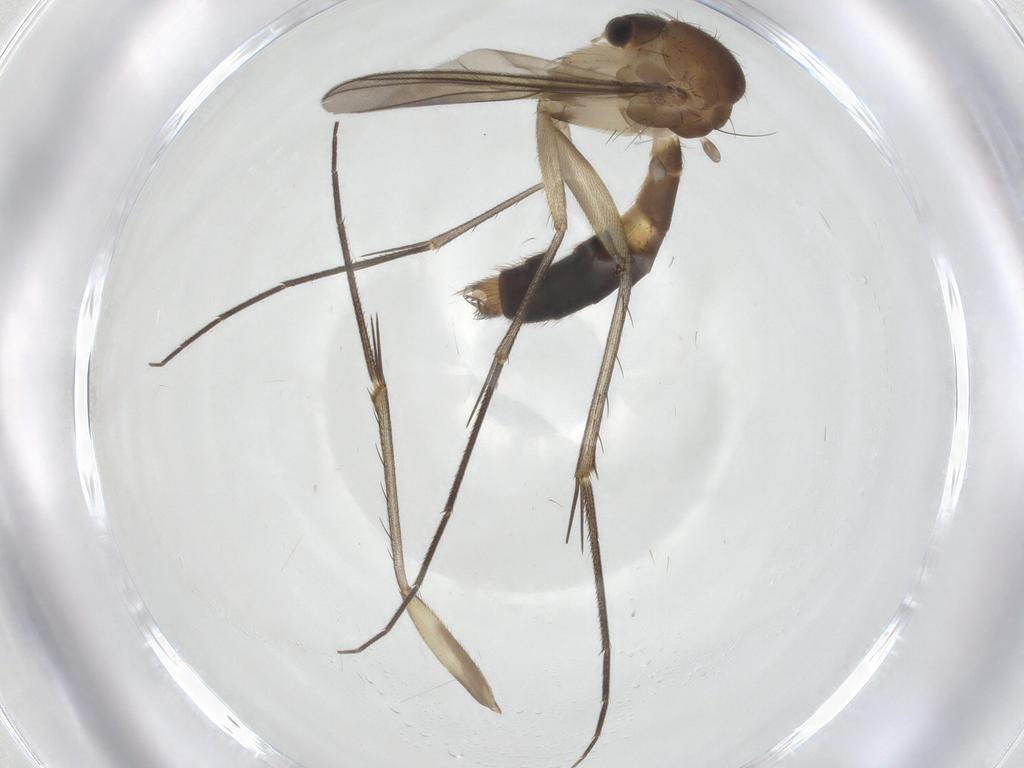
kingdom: Animalia
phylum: Arthropoda
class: Insecta
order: Diptera
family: Mycetophilidae
